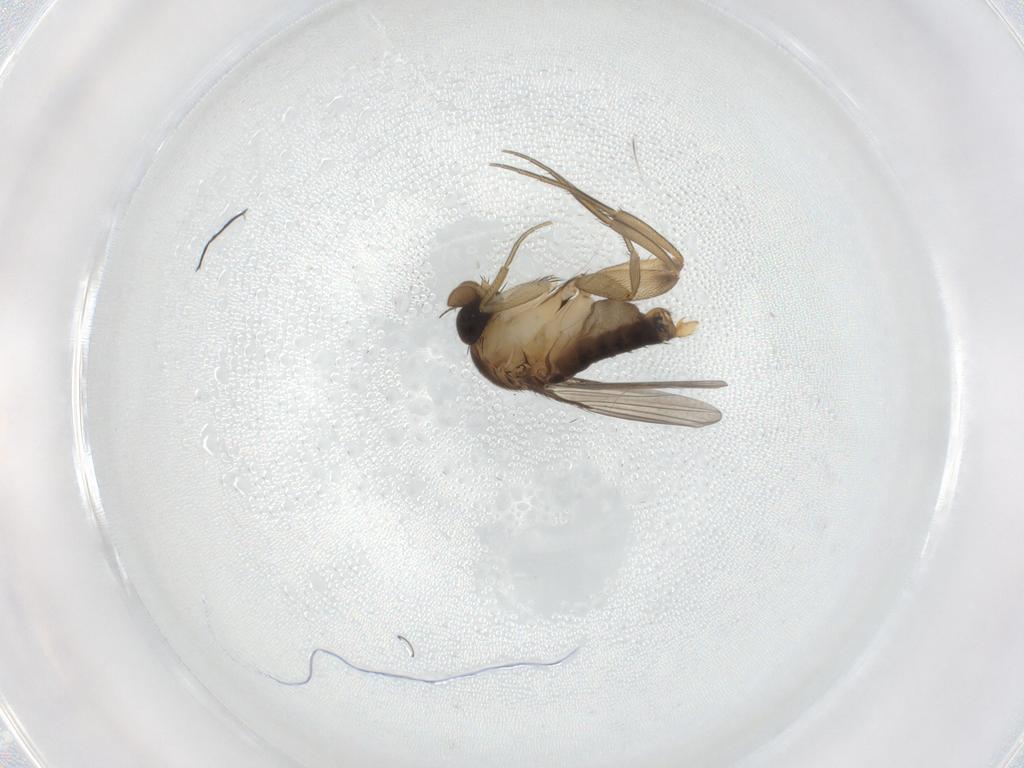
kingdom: Animalia
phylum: Arthropoda
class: Insecta
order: Diptera
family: Phoridae
